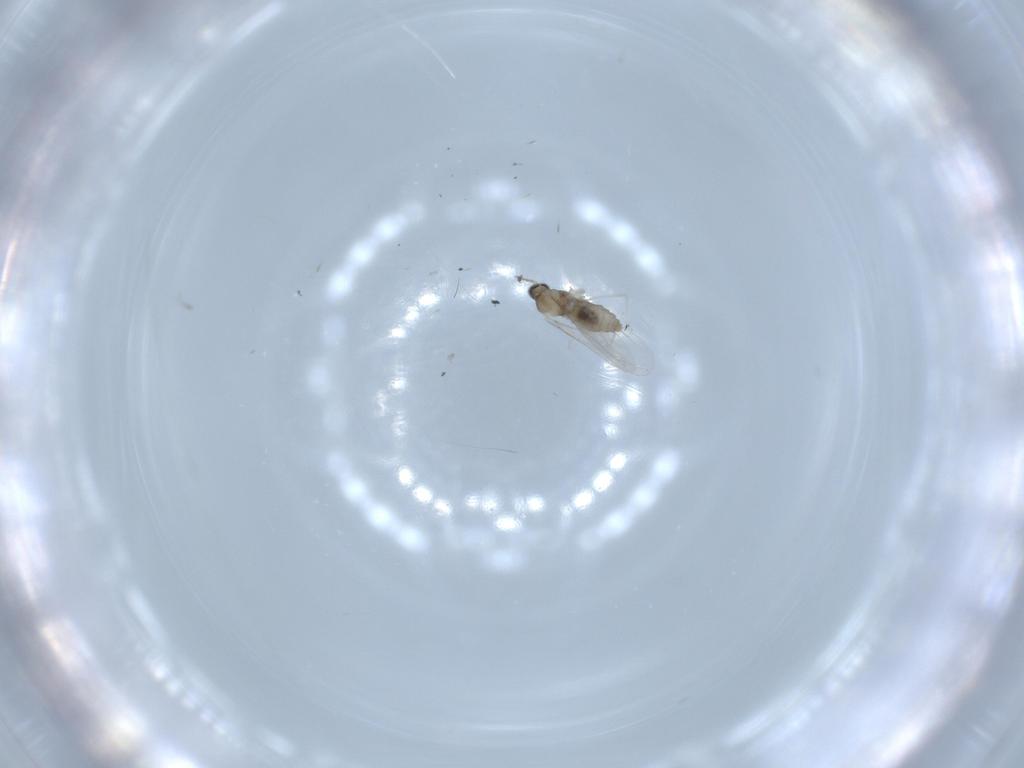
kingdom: Animalia
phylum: Arthropoda
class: Insecta
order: Diptera
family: Cecidomyiidae
